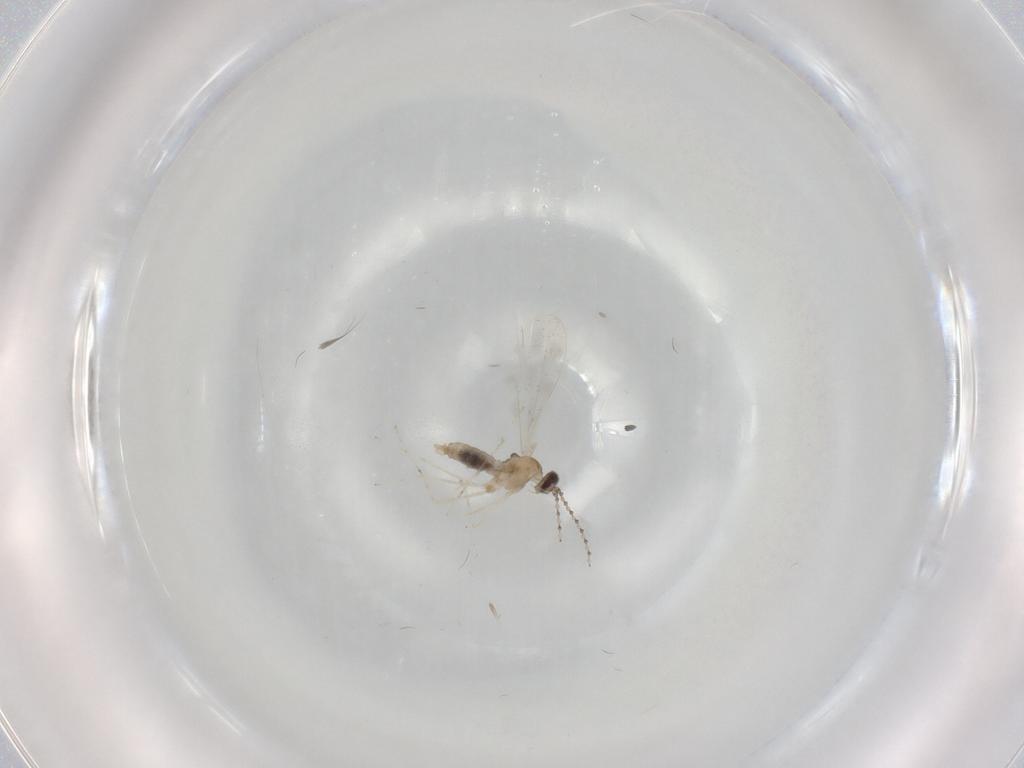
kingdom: Animalia
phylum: Arthropoda
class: Insecta
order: Diptera
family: Cecidomyiidae
